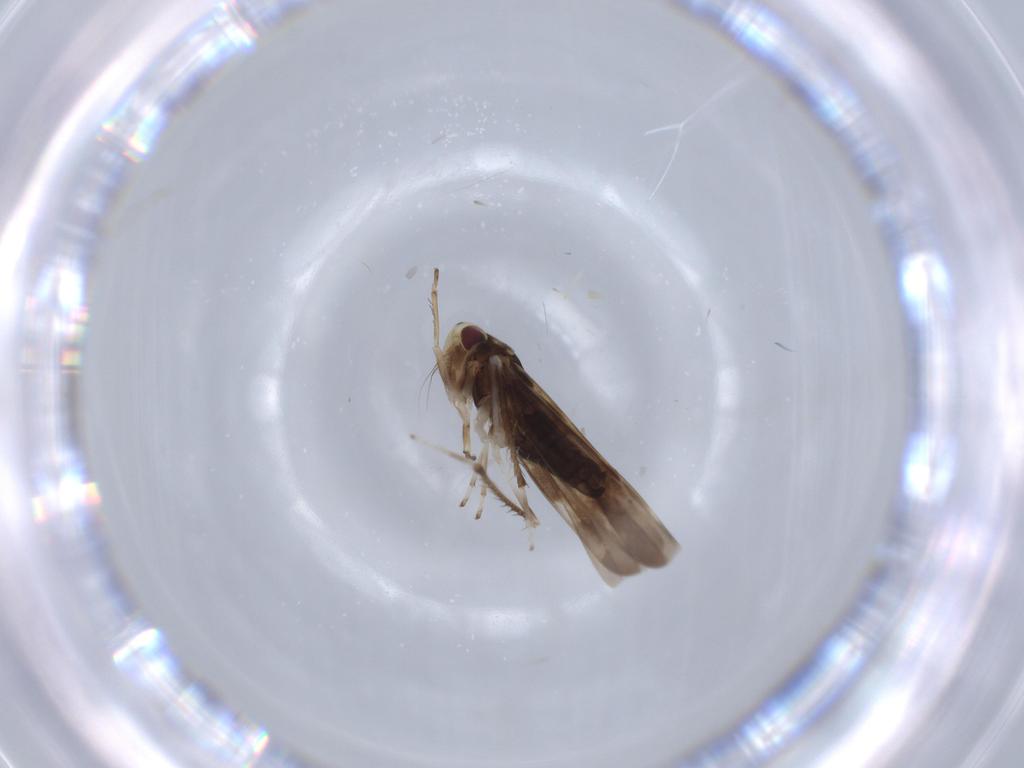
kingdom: Animalia
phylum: Arthropoda
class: Insecta
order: Hemiptera
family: Cicadellidae
